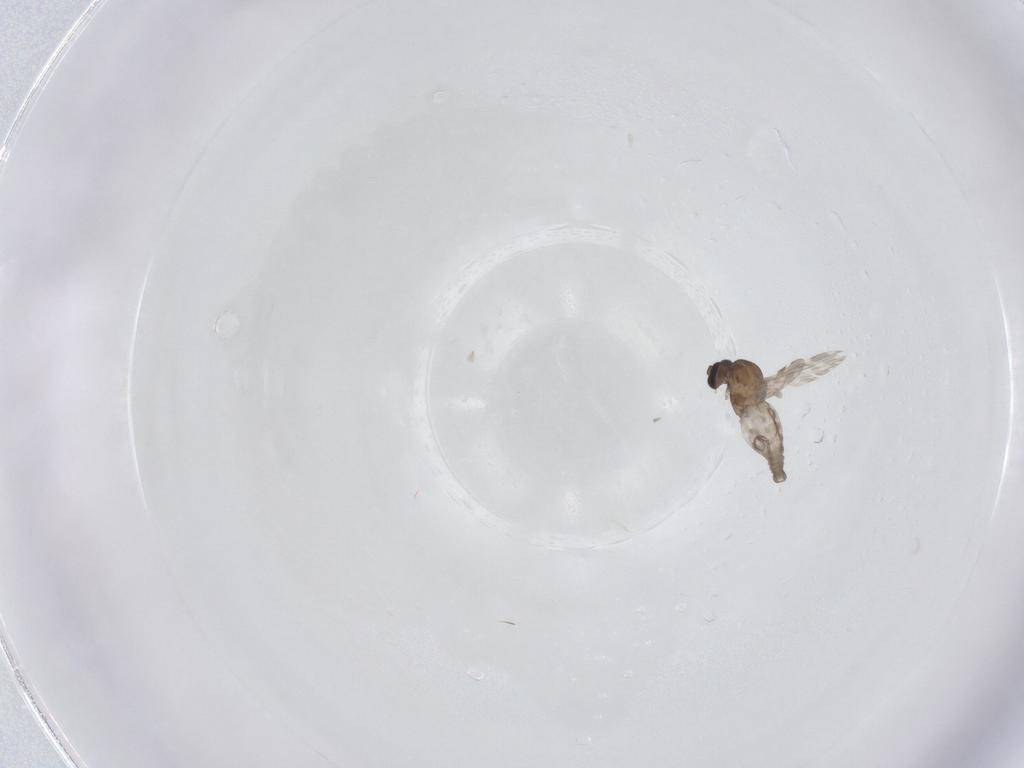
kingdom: Animalia
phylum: Arthropoda
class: Insecta
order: Diptera
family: Ceratopogonidae
